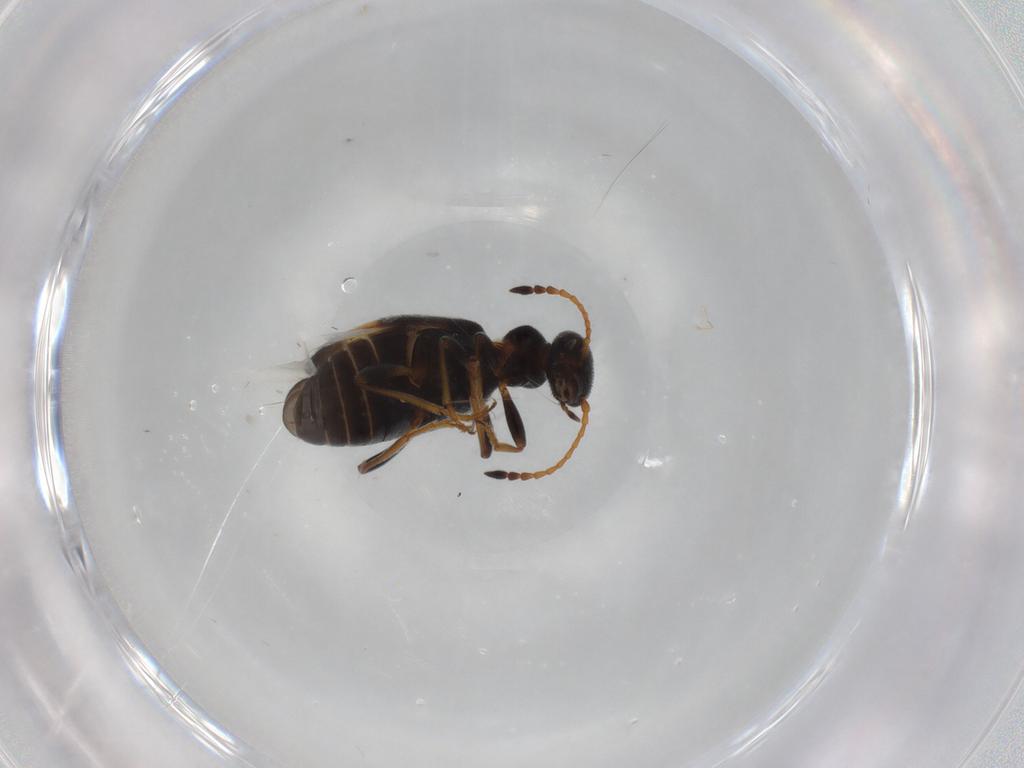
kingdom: Animalia
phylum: Arthropoda
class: Insecta
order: Coleoptera
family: Anthicidae
